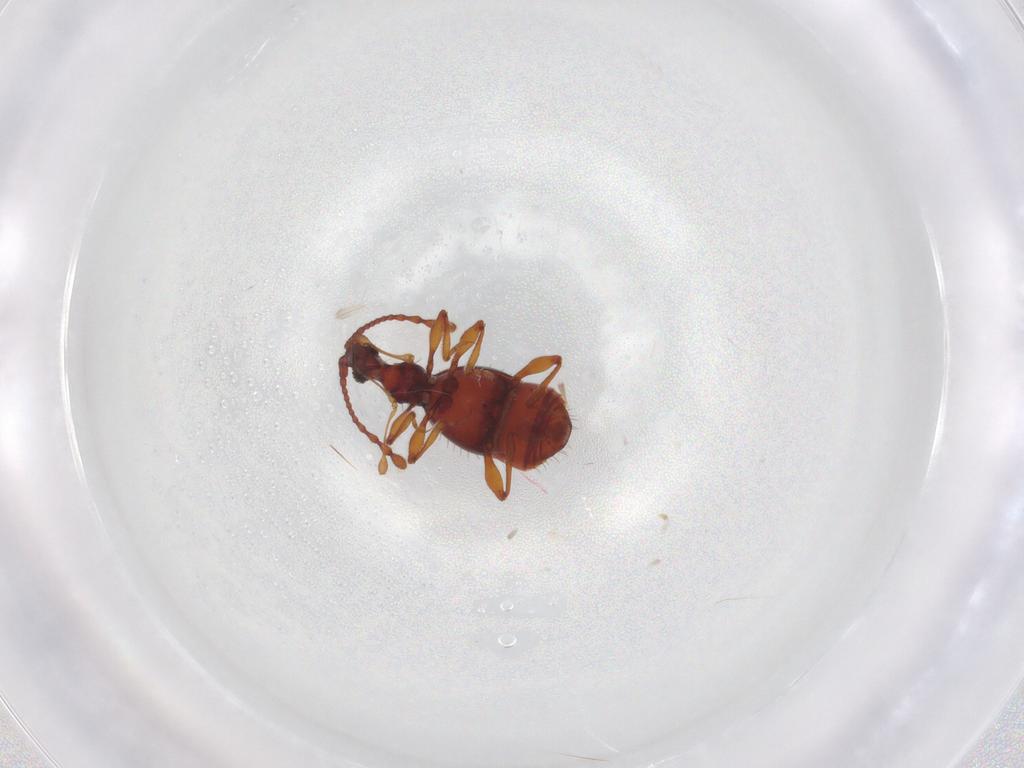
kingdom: Animalia
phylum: Arthropoda
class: Insecta
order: Coleoptera
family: Staphylinidae
